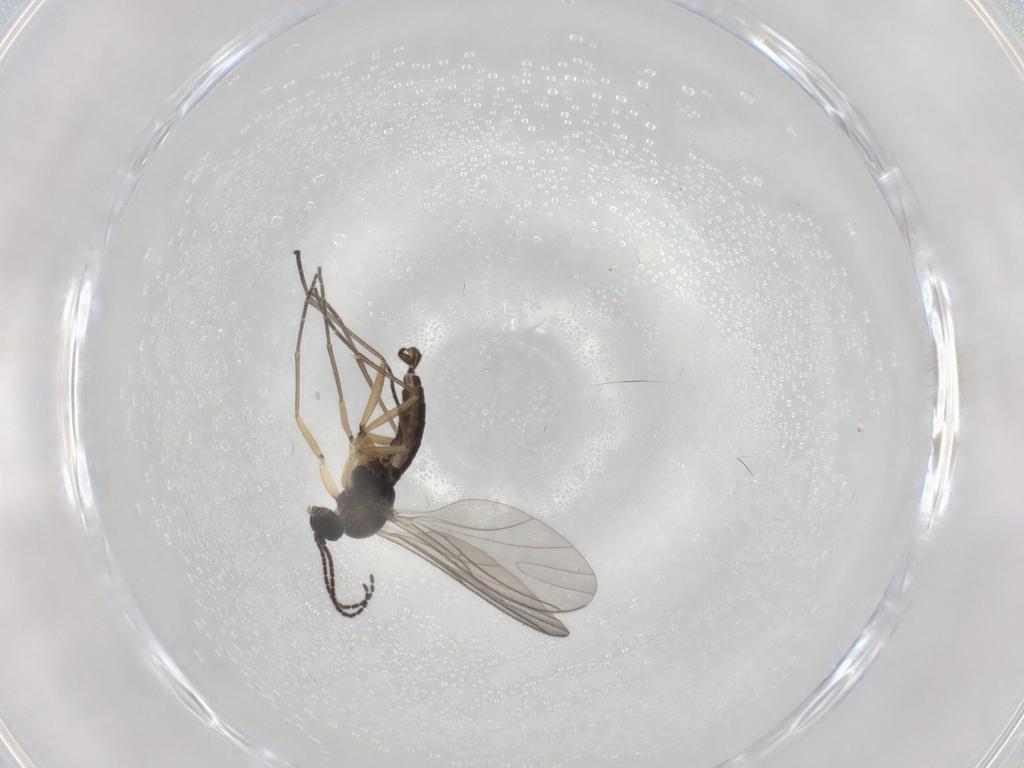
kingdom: Animalia
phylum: Arthropoda
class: Insecta
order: Diptera
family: Sciaridae
